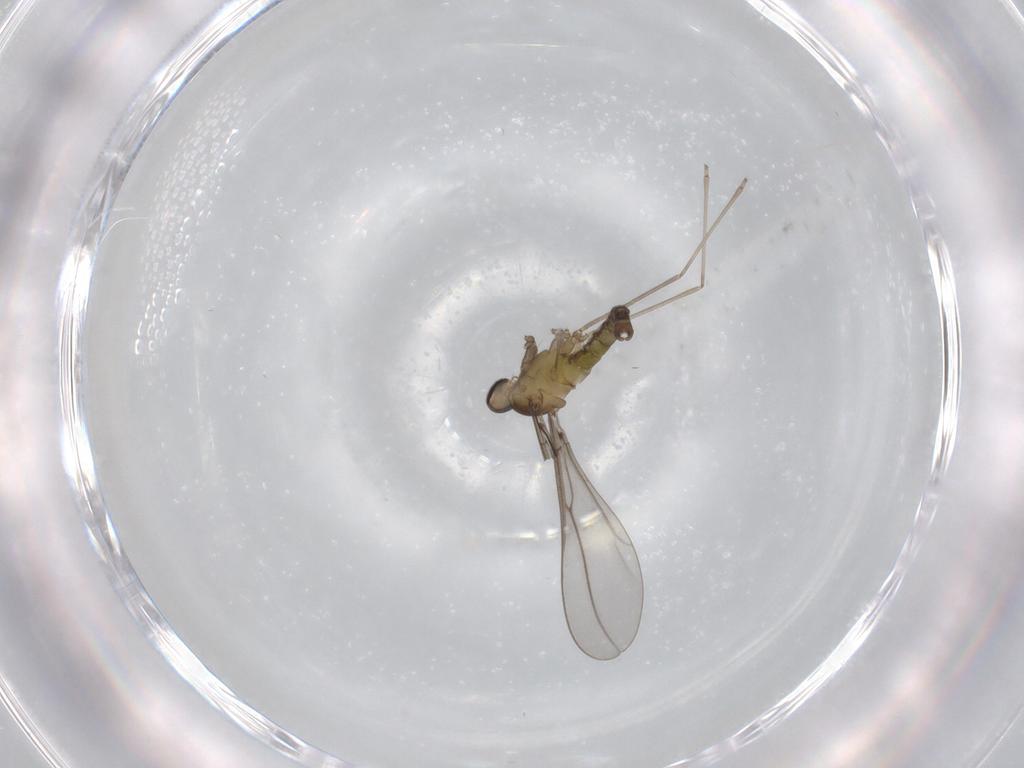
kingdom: Animalia
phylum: Arthropoda
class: Insecta
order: Diptera
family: Cecidomyiidae
